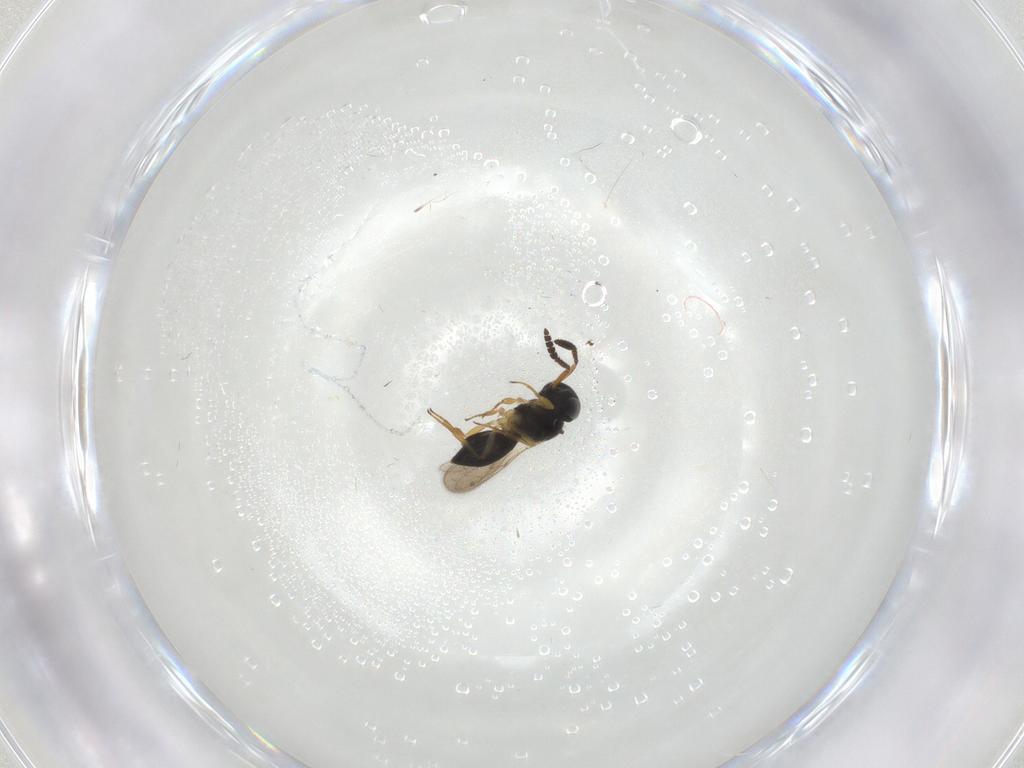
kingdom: Animalia
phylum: Arthropoda
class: Insecta
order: Hymenoptera
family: Scelionidae
